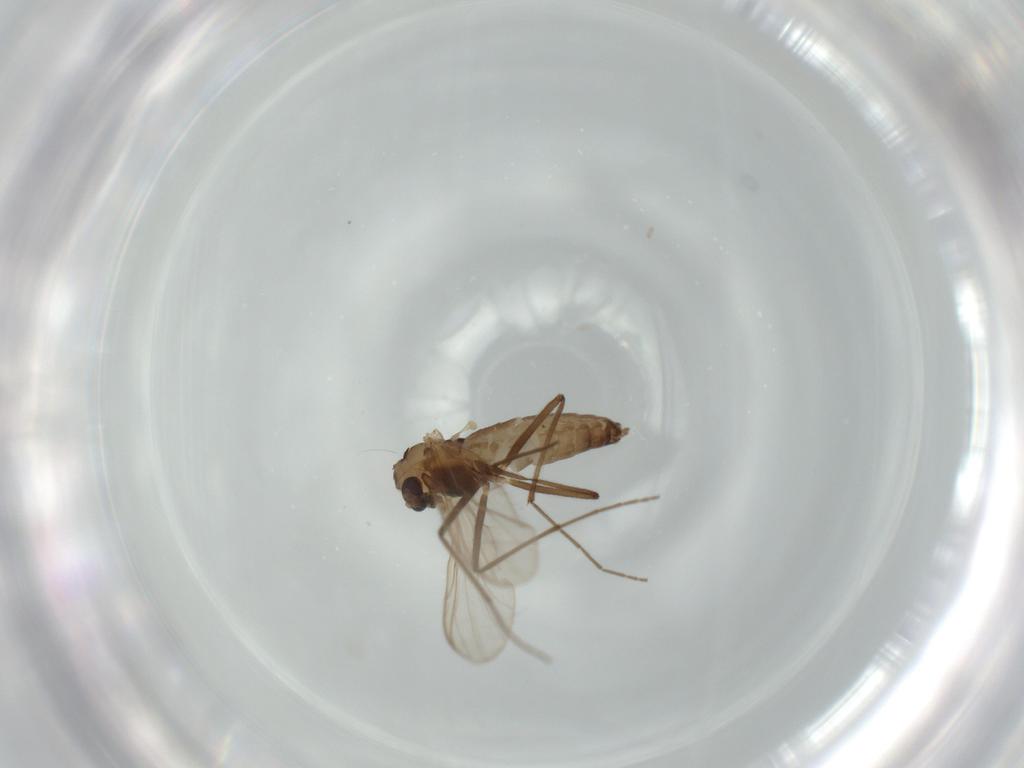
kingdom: Animalia
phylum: Arthropoda
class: Insecta
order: Diptera
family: Chironomidae
